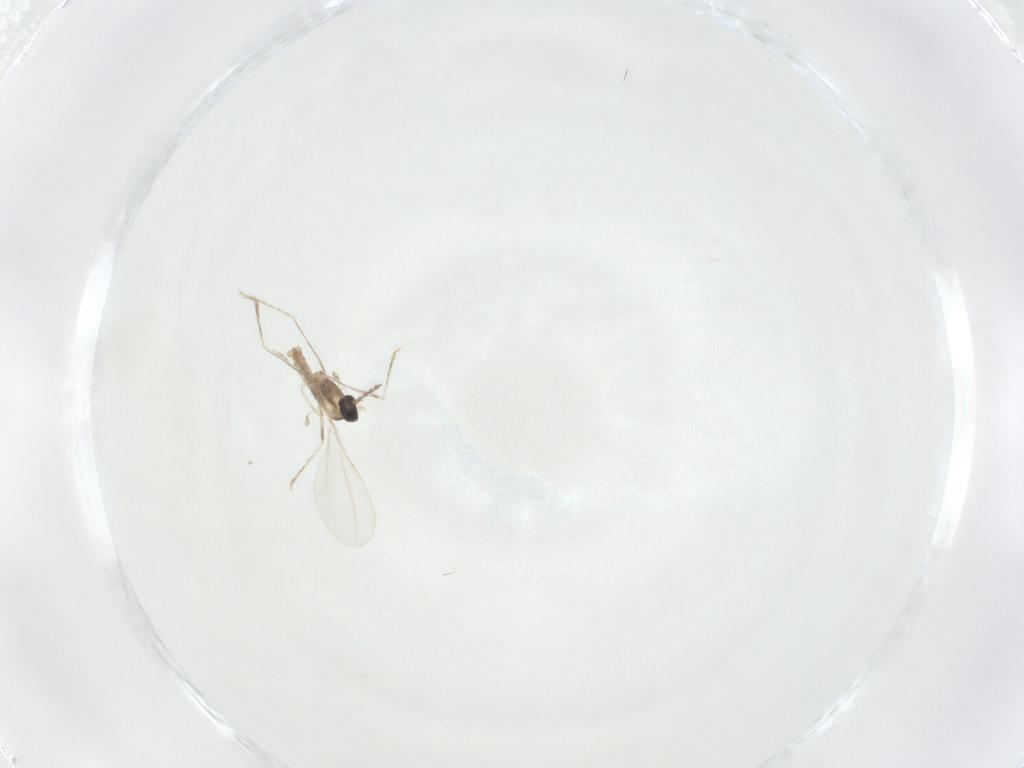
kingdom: Animalia
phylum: Arthropoda
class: Insecta
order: Diptera
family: Cecidomyiidae
